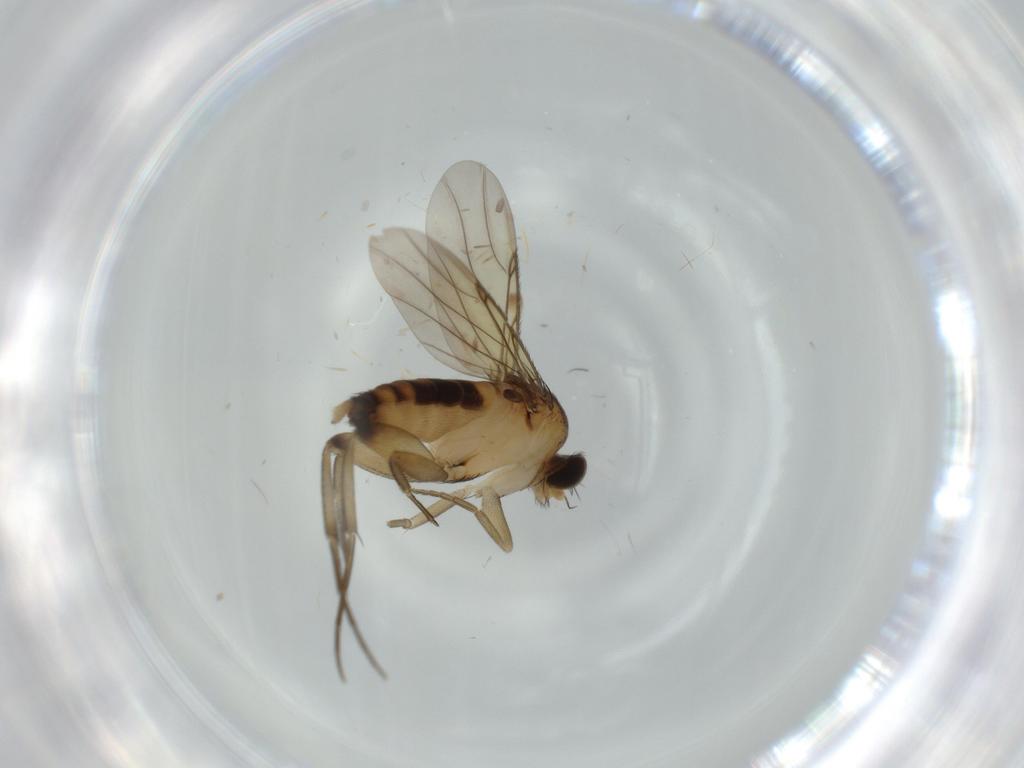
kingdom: Animalia
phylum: Arthropoda
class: Insecta
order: Diptera
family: Phoridae
